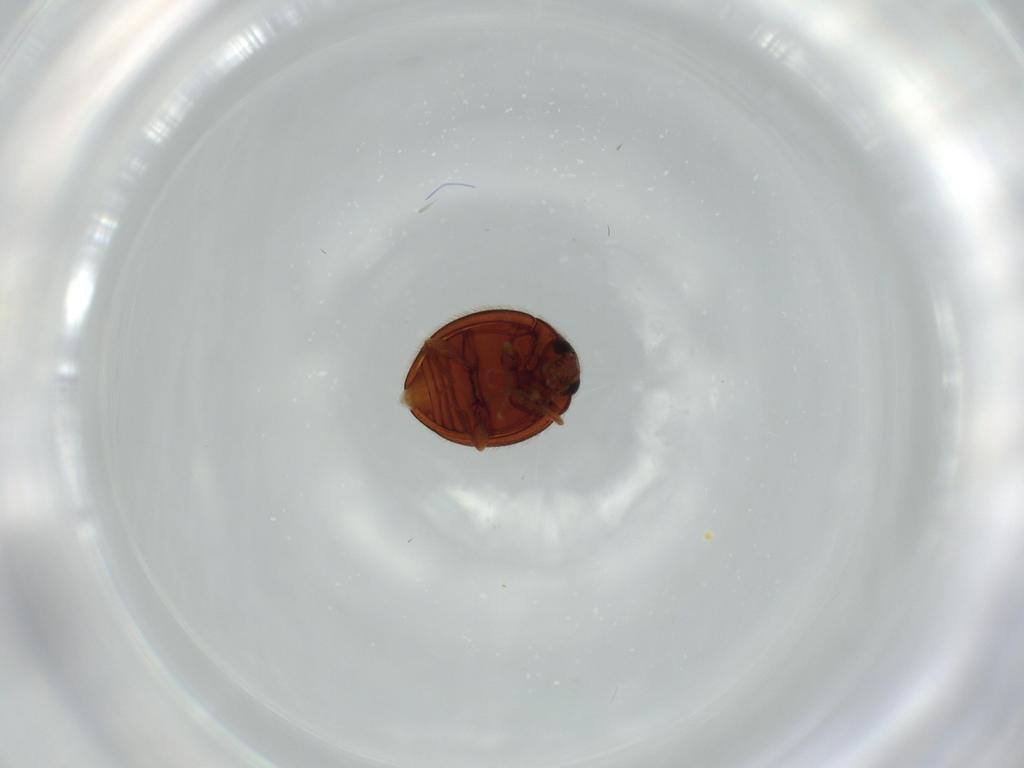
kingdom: Animalia
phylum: Arthropoda
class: Insecta
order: Coleoptera
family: Anamorphidae
